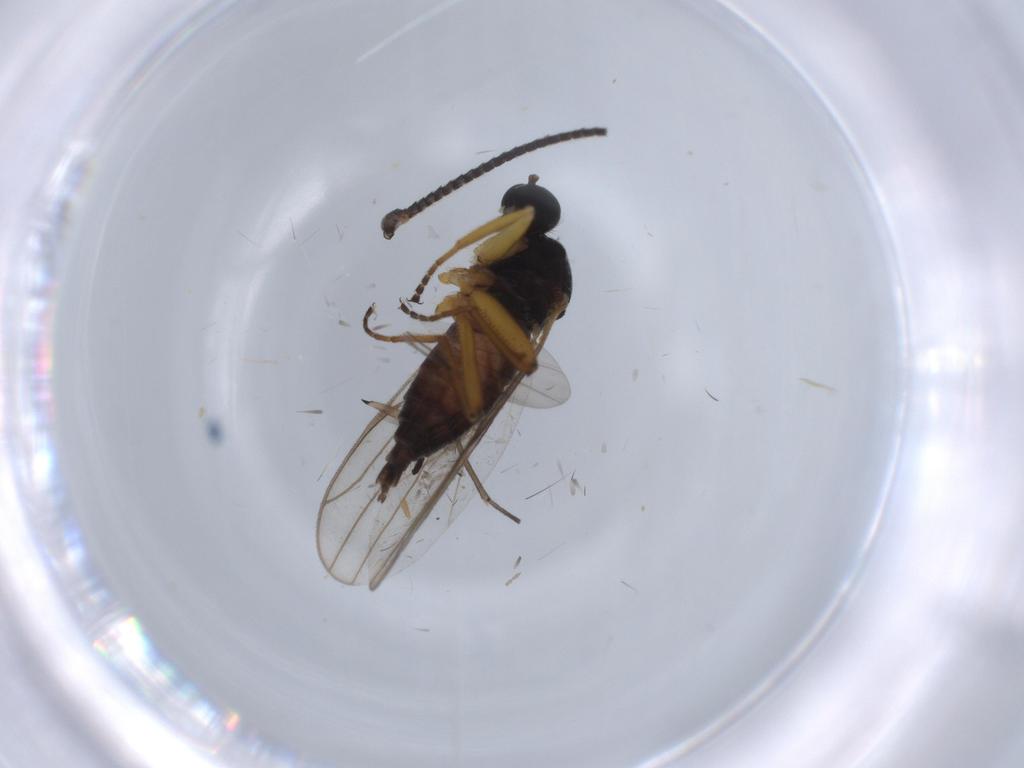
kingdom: Animalia
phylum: Arthropoda
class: Insecta
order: Diptera
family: Hybotidae
